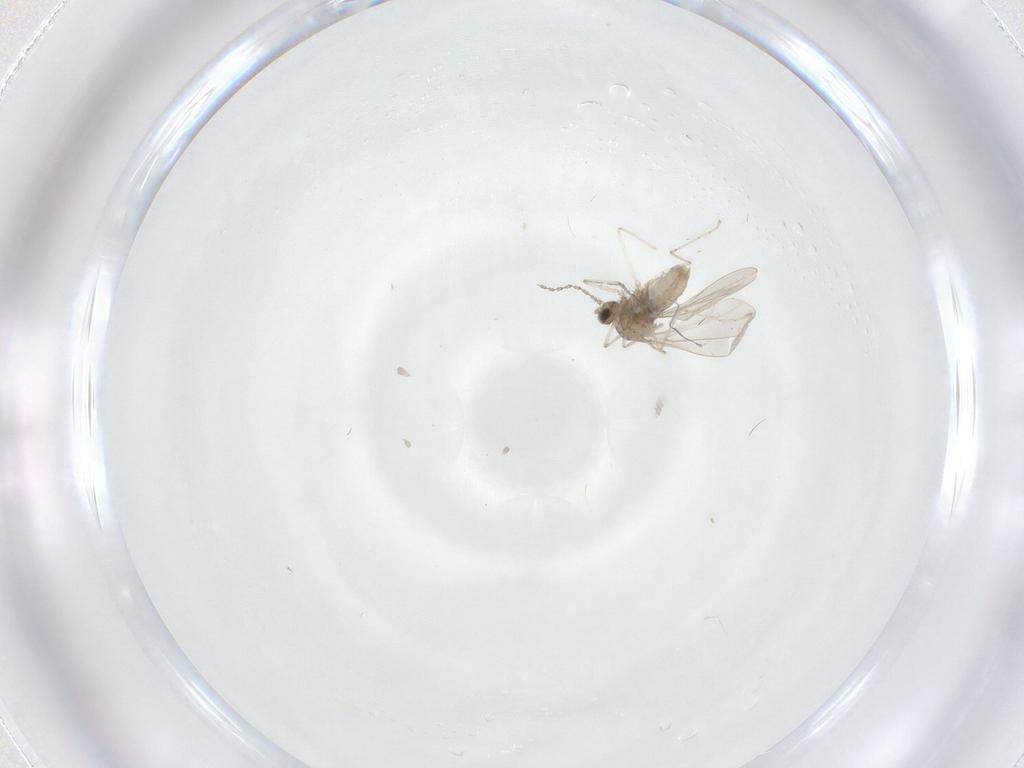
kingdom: Animalia
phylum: Arthropoda
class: Insecta
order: Diptera
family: Cecidomyiidae
